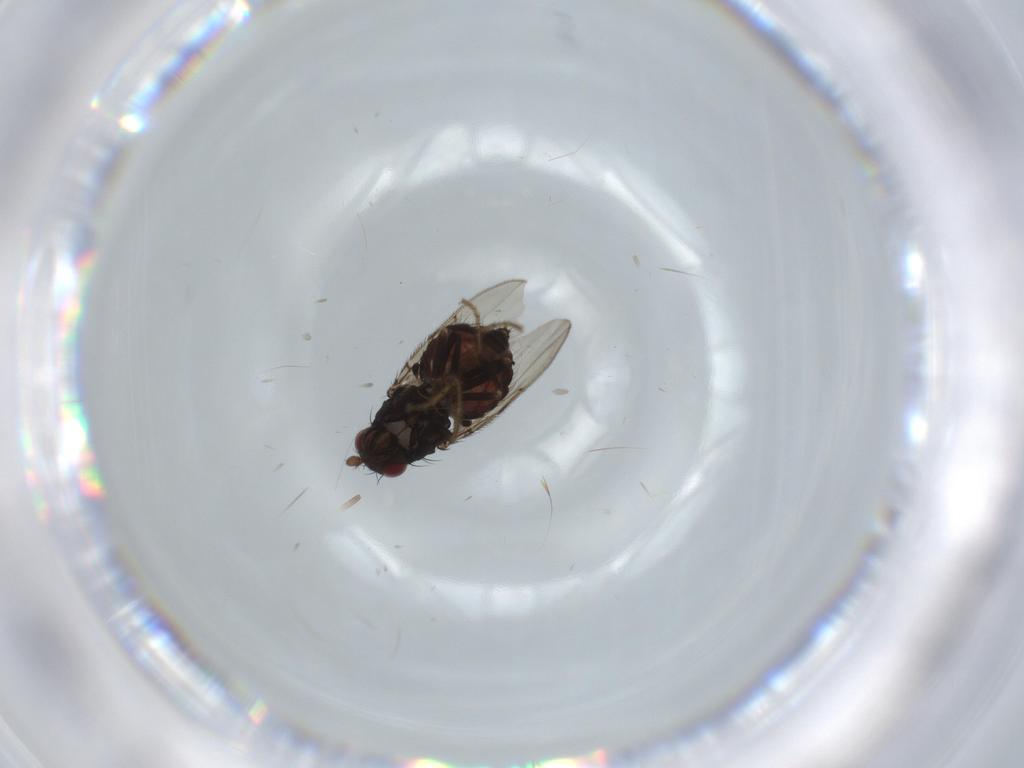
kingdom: Animalia
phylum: Arthropoda
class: Insecta
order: Diptera
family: Sphaeroceridae
